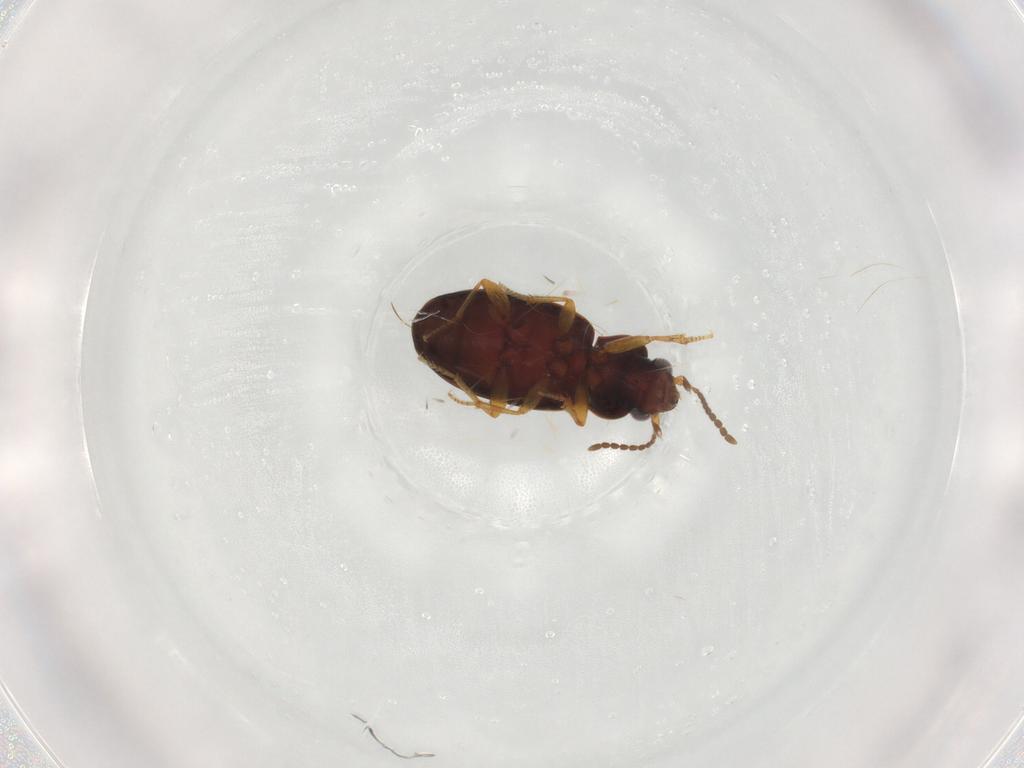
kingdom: Animalia
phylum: Arthropoda
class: Insecta
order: Coleoptera
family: Carabidae
